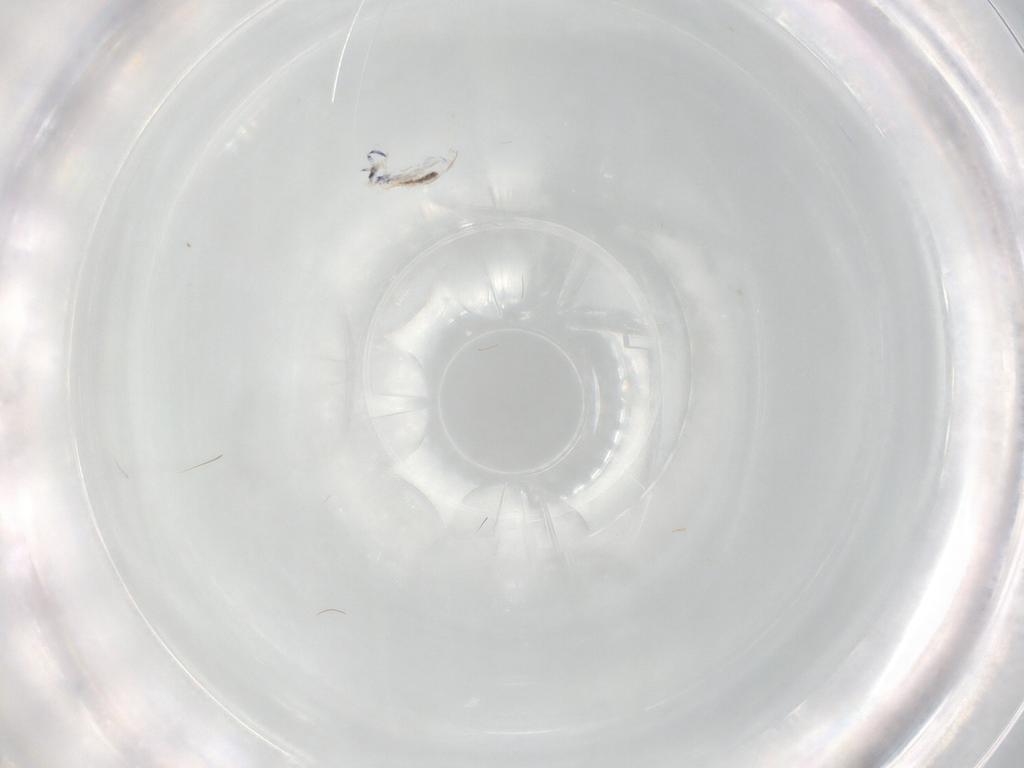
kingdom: Animalia
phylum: Arthropoda
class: Collembola
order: Entomobryomorpha
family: Entomobryidae
